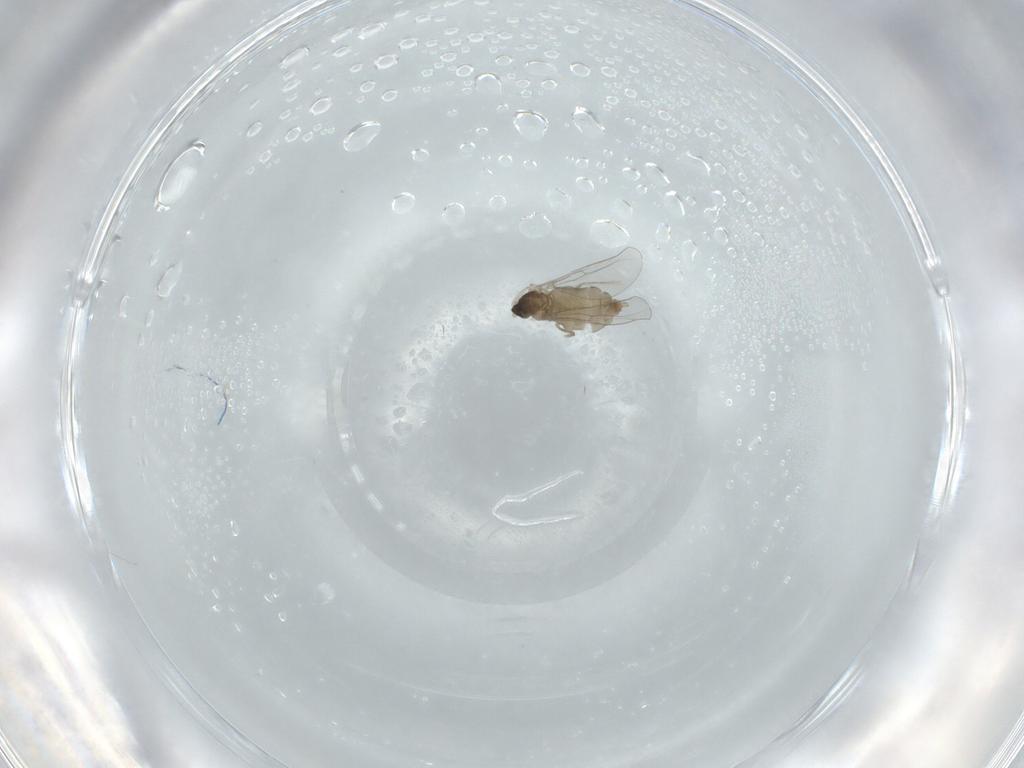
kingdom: Animalia
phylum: Arthropoda
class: Insecta
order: Diptera
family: Cecidomyiidae
